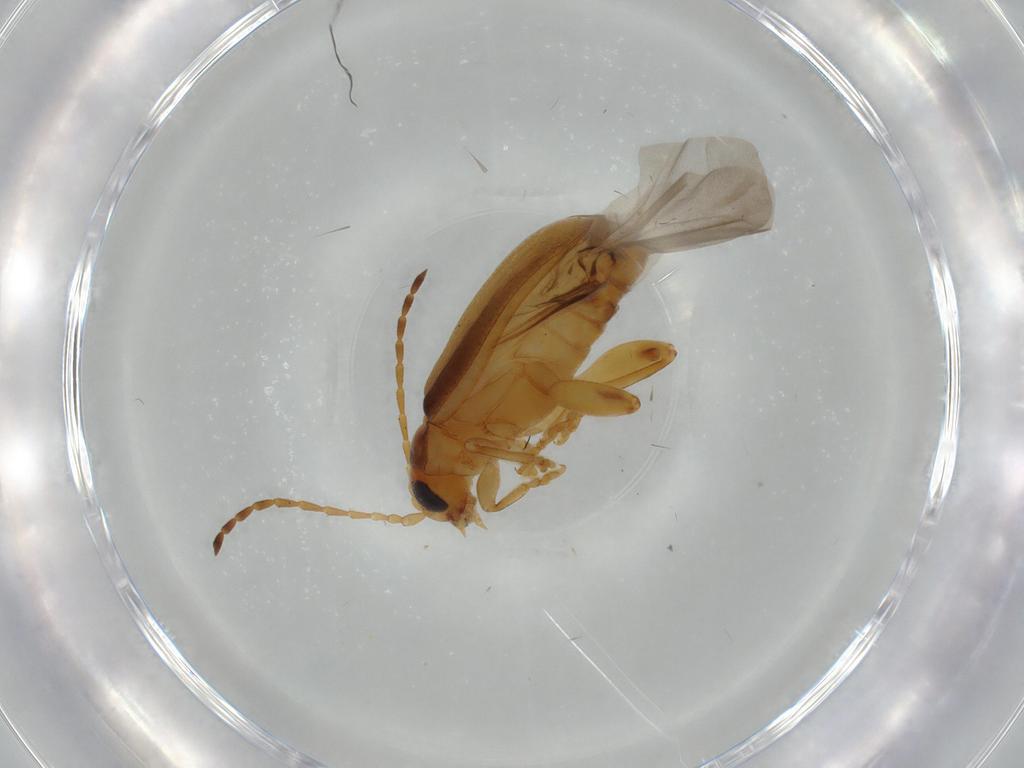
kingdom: Animalia
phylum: Arthropoda
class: Insecta
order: Coleoptera
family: Chrysomelidae
